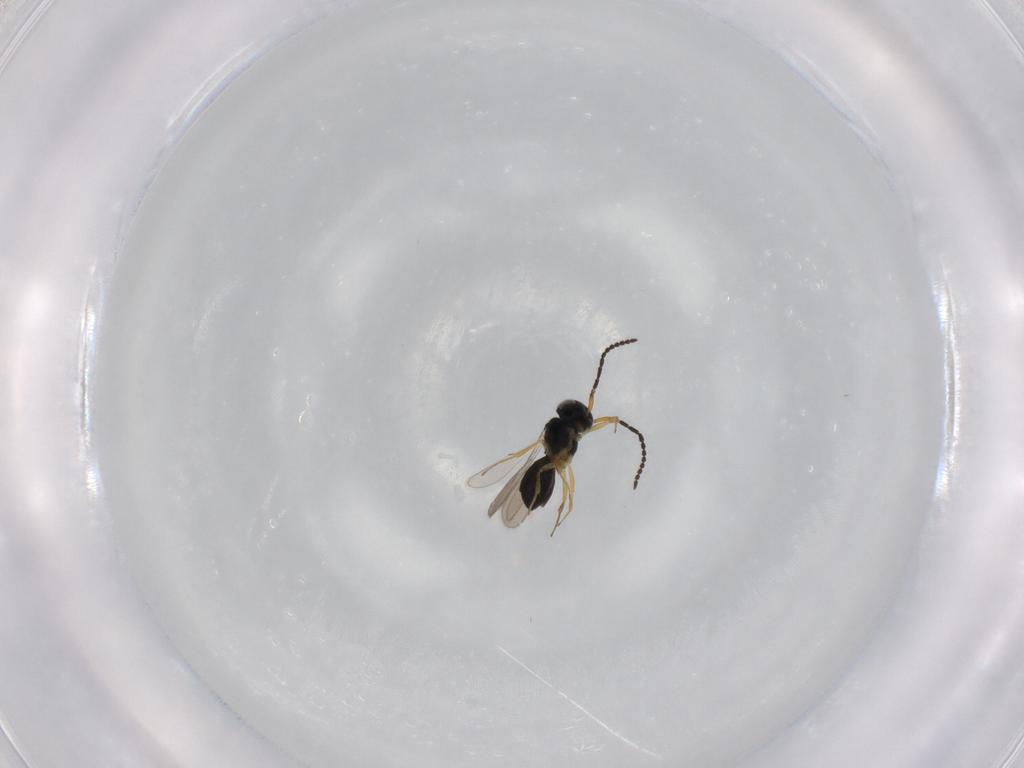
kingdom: Animalia
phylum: Arthropoda
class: Insecta
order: Hymenoptera
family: Scelionidae
